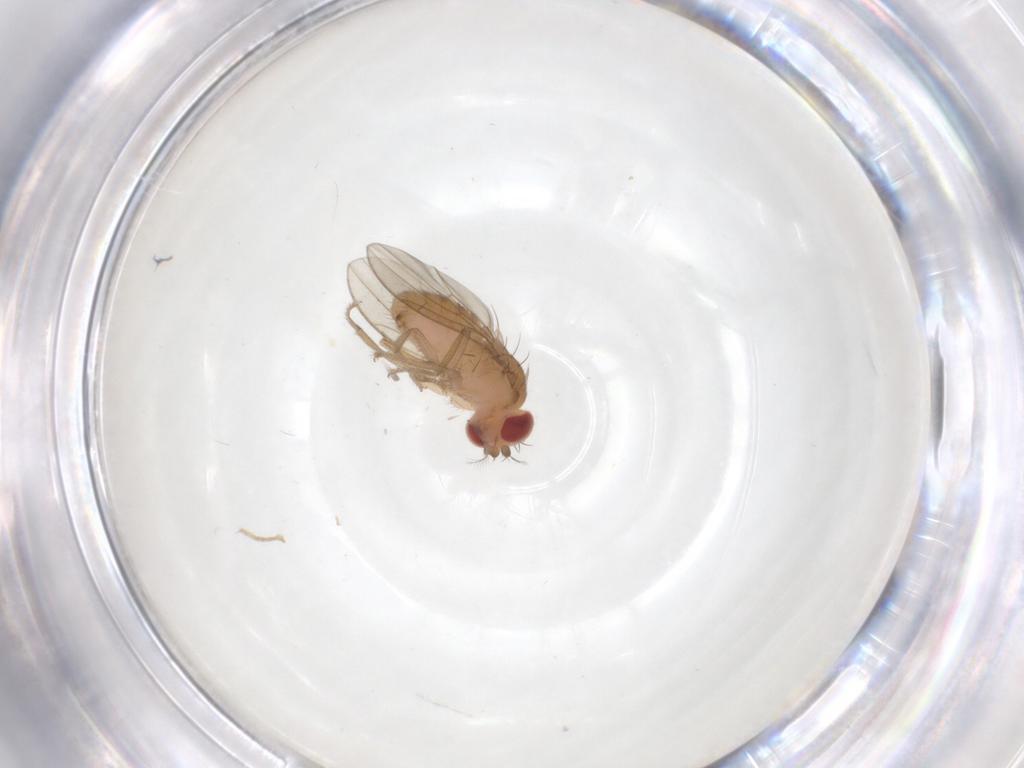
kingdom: Animalia
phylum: Arthropoda
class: Insecta
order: Diptera
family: Drosophilidae
